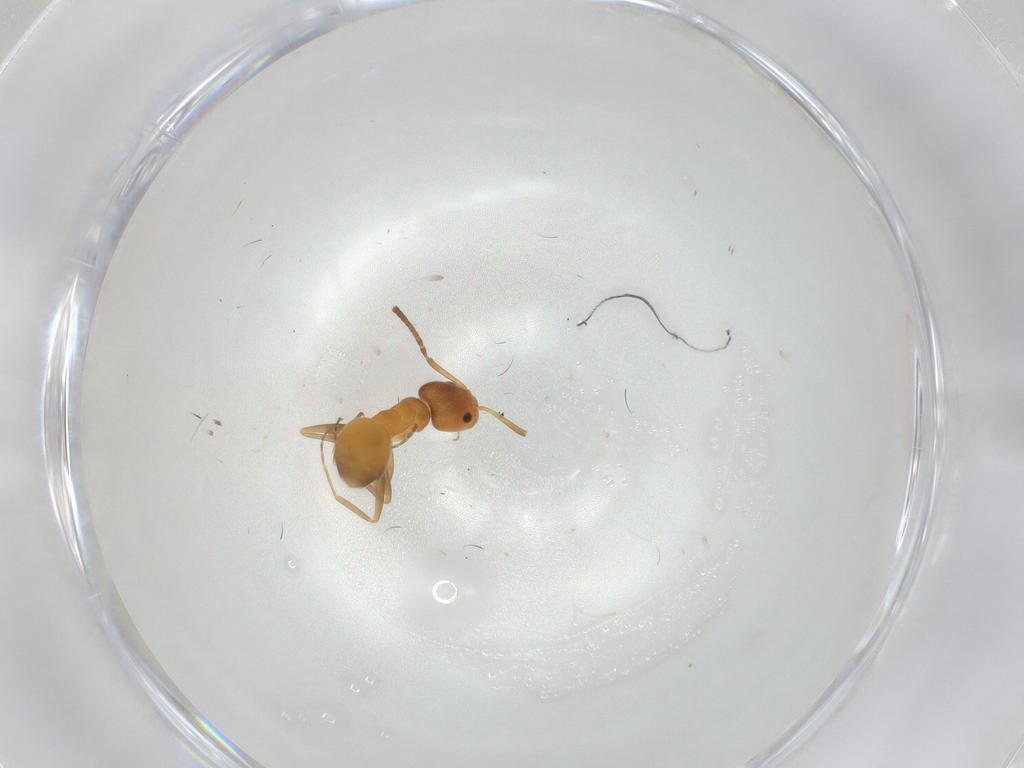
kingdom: Animalia
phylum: Arthropoda
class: Insecta
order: Hymenoptera
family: Formicidae
